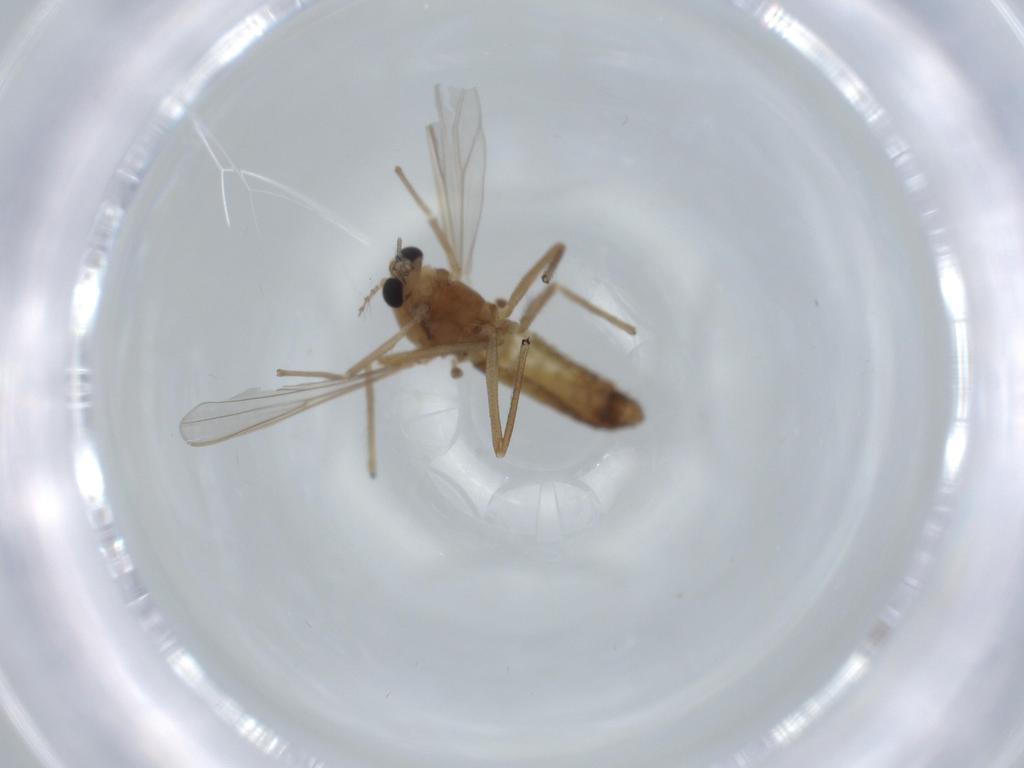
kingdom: Animalia
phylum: Arthropoda
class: Insecta
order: Diptera
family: Chironomidae
